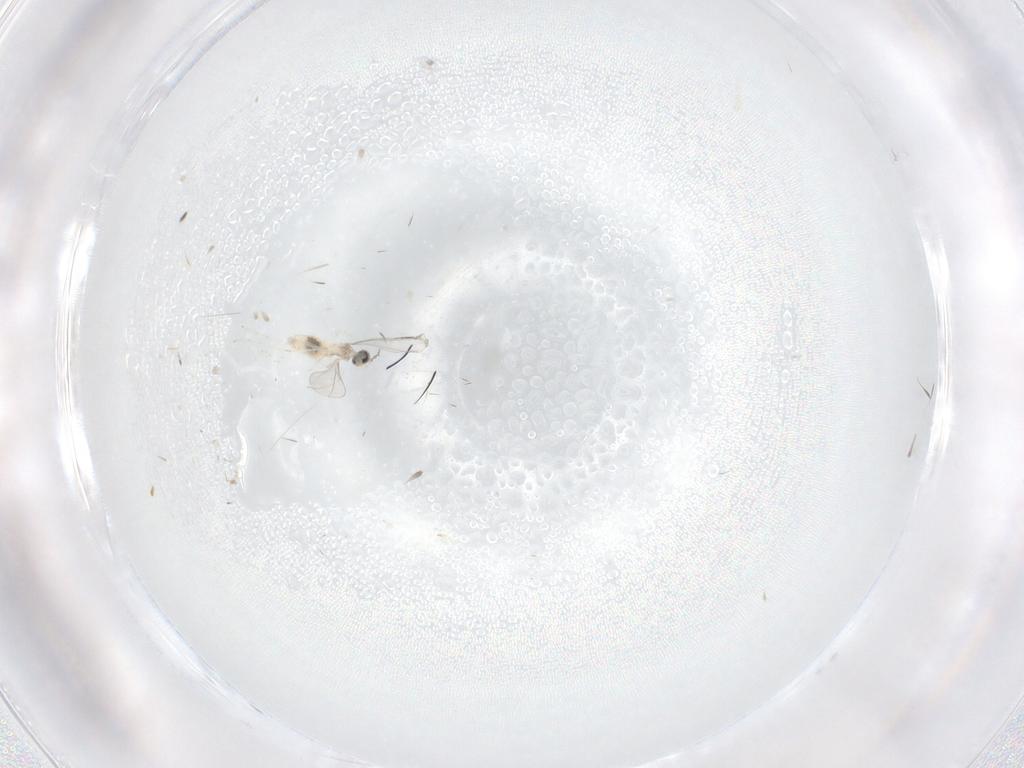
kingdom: Animalia
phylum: Arthropoda
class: Insecta
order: Diptera
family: Cecidomyiidae
